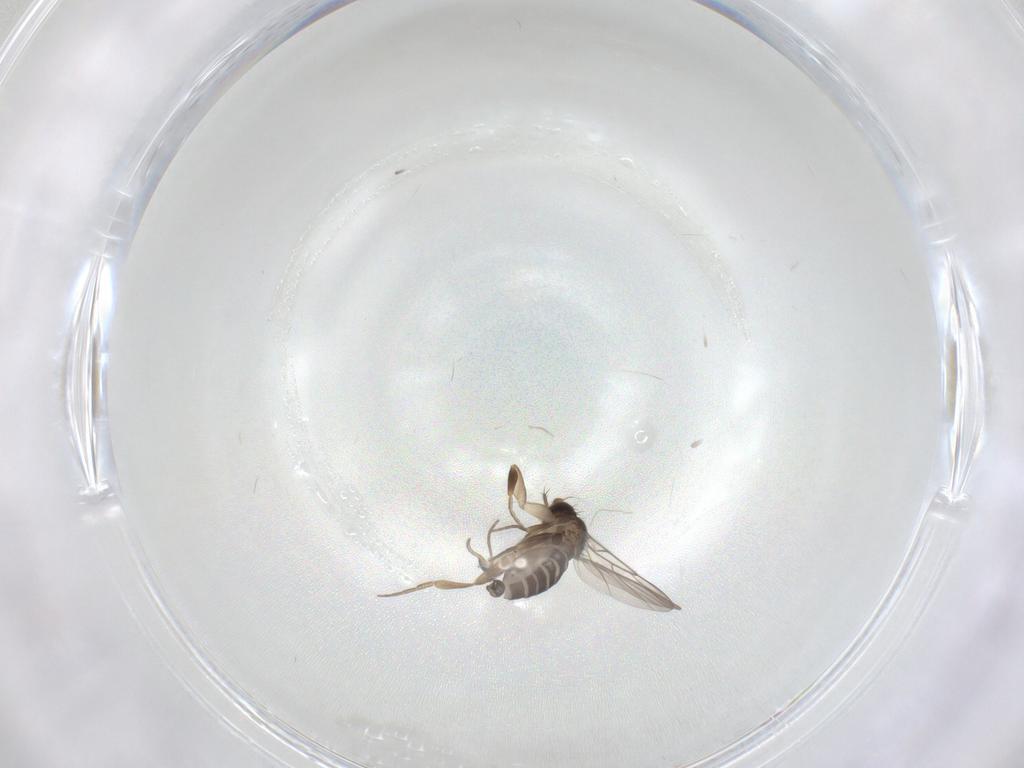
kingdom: Animalia
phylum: Arthropoda
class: Insecta
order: Diptera
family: Phoridae
